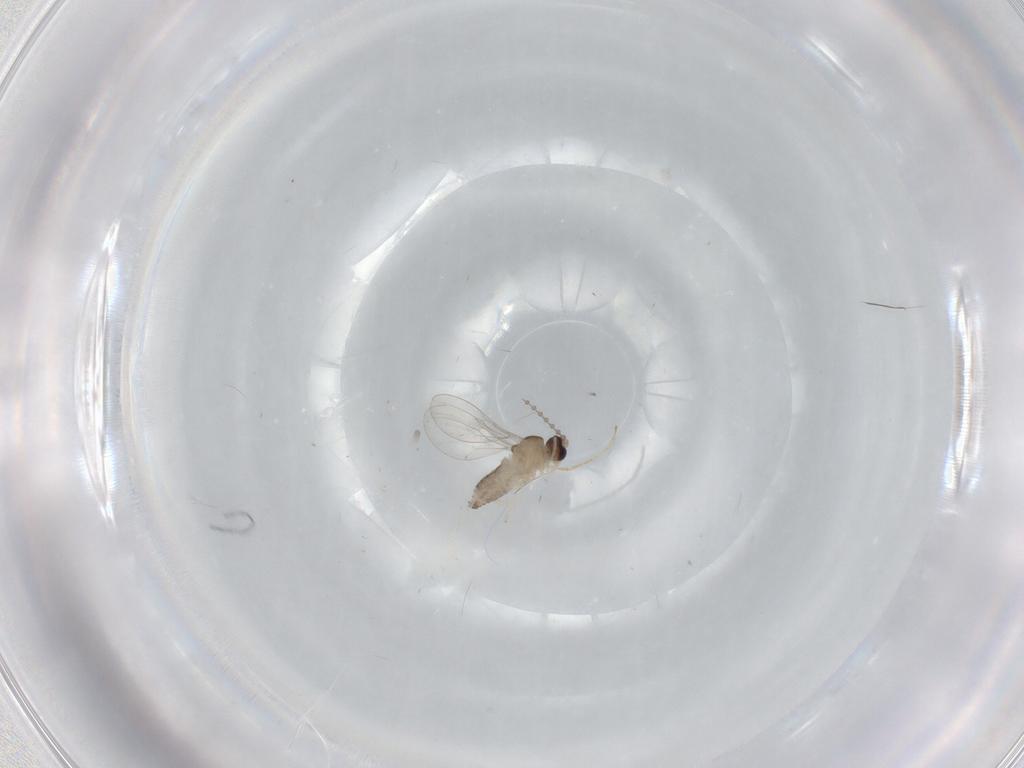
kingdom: Animalia
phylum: Arthropoda
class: Insecta
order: Diptera
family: Cecidomyiidae
